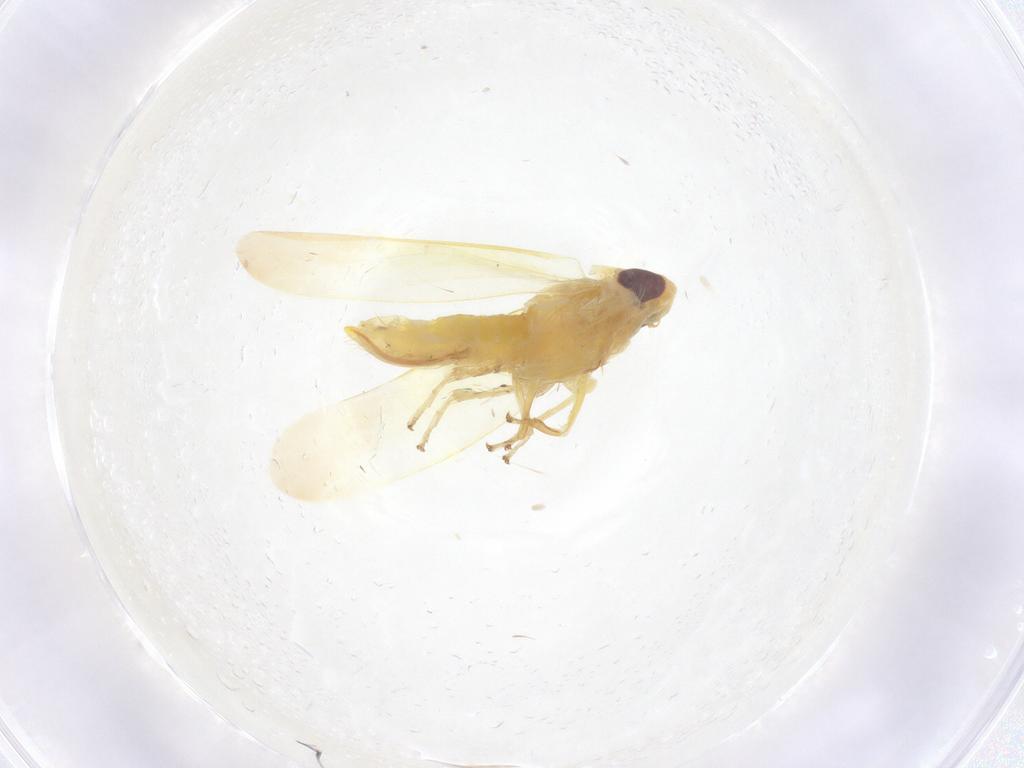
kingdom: Animalia
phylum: Arthropoda
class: Insecta
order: Hemiptera
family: Cicadellidae
